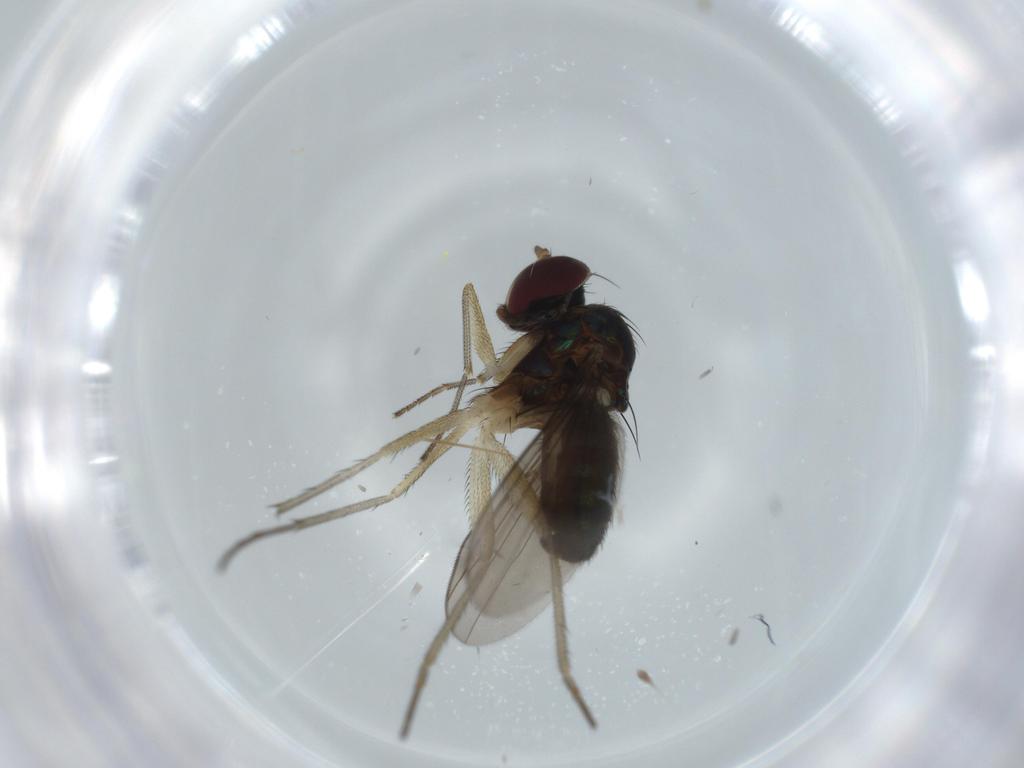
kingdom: Animalia
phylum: Arthropoda
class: Insecta
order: Diptera
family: Dolichopodidae
